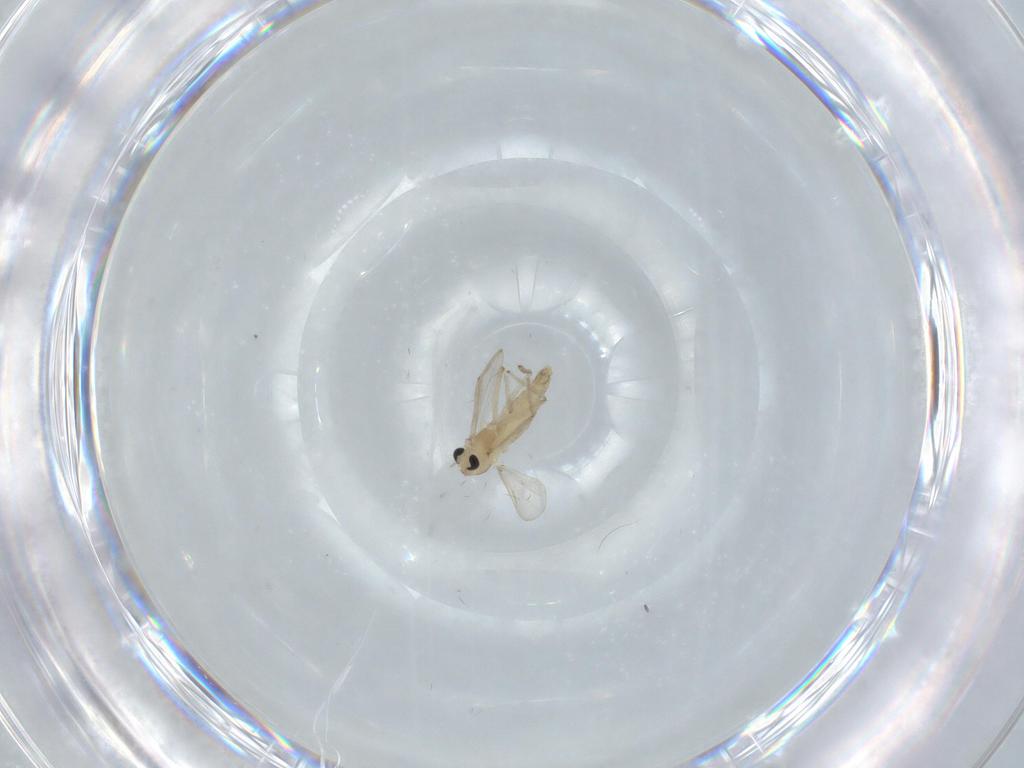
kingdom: Animalia
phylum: Arthropoda
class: Insecta
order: Diptera
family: Chironomidae
